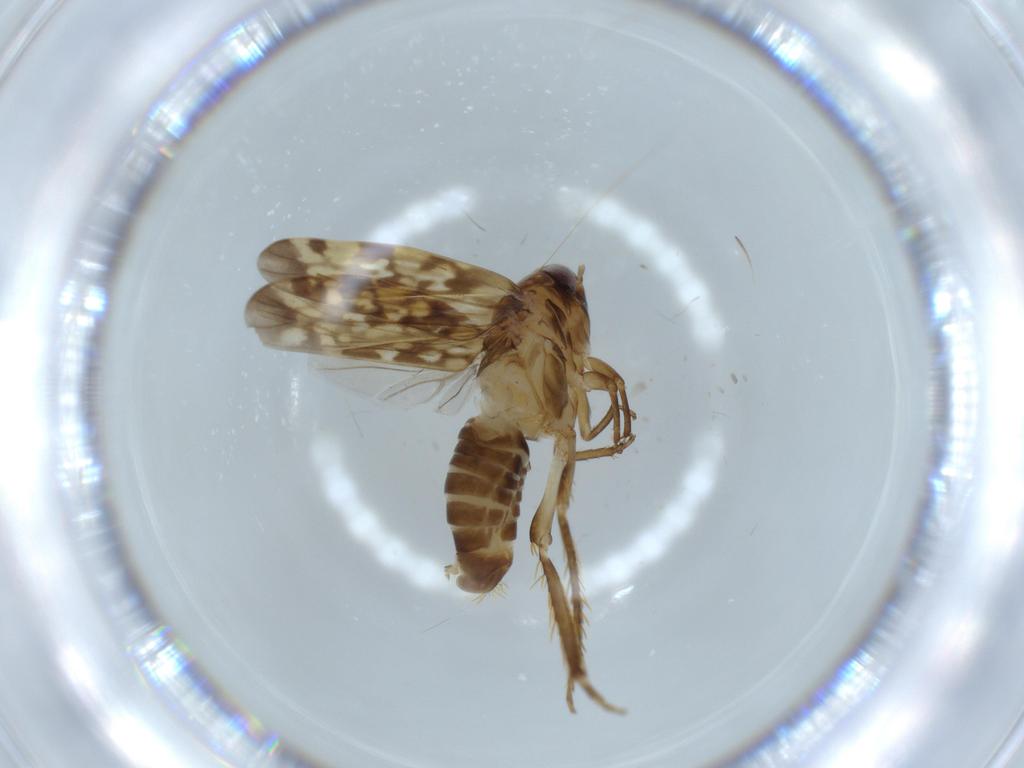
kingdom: Animalia
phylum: Arthropoda
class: Insecta
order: Hemiptera
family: Cicadellidae
